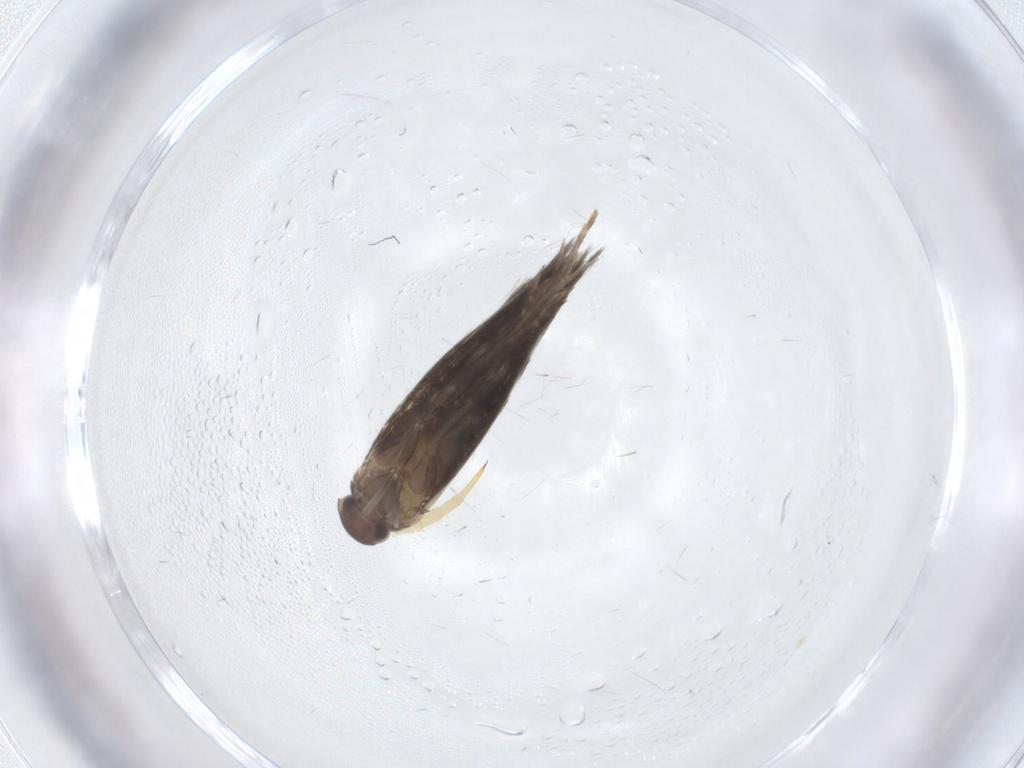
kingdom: Animalia
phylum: Arthropoda
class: Insecta
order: Lepidoptera
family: Elachistidae
